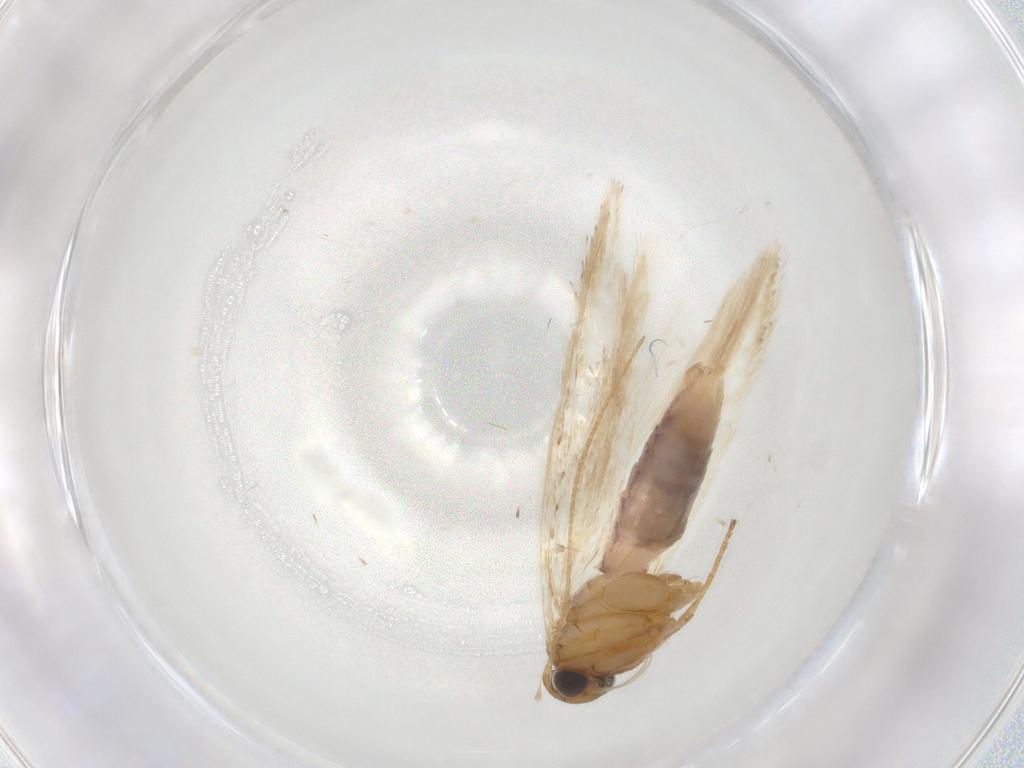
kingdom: Animalia
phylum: Arthropoda
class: Insecta
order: Lepidoptera
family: Gelechiidae
